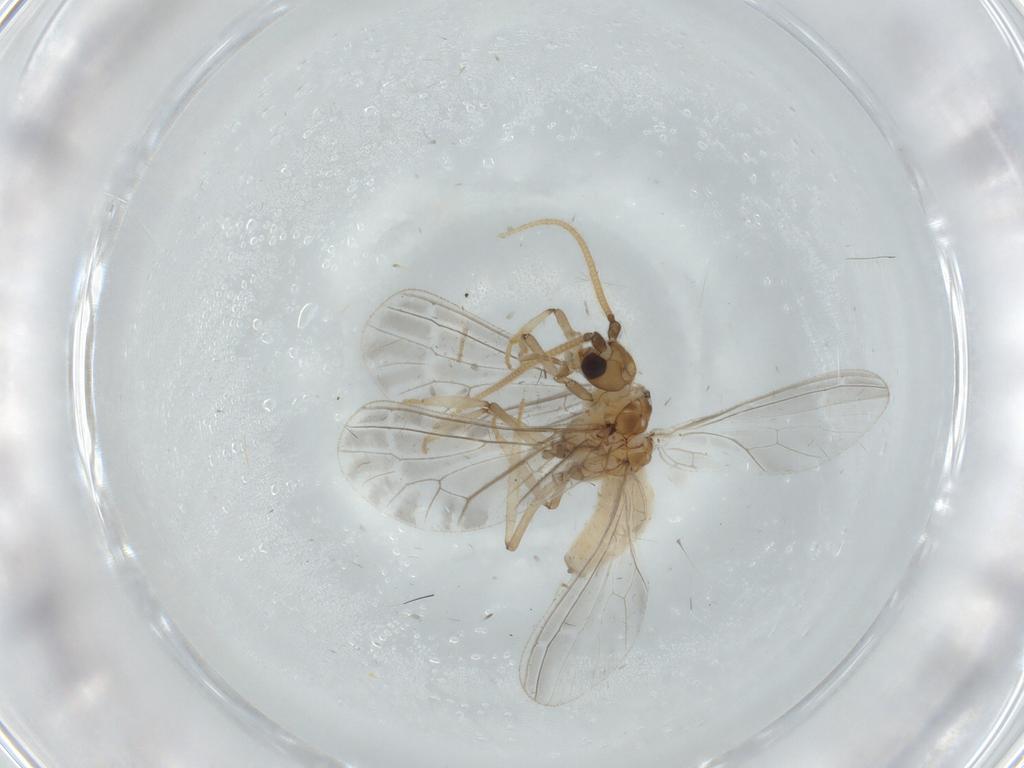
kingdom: Animalia
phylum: Arthropoda
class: Insecta
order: Neuroptera
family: Coniopterygidae
